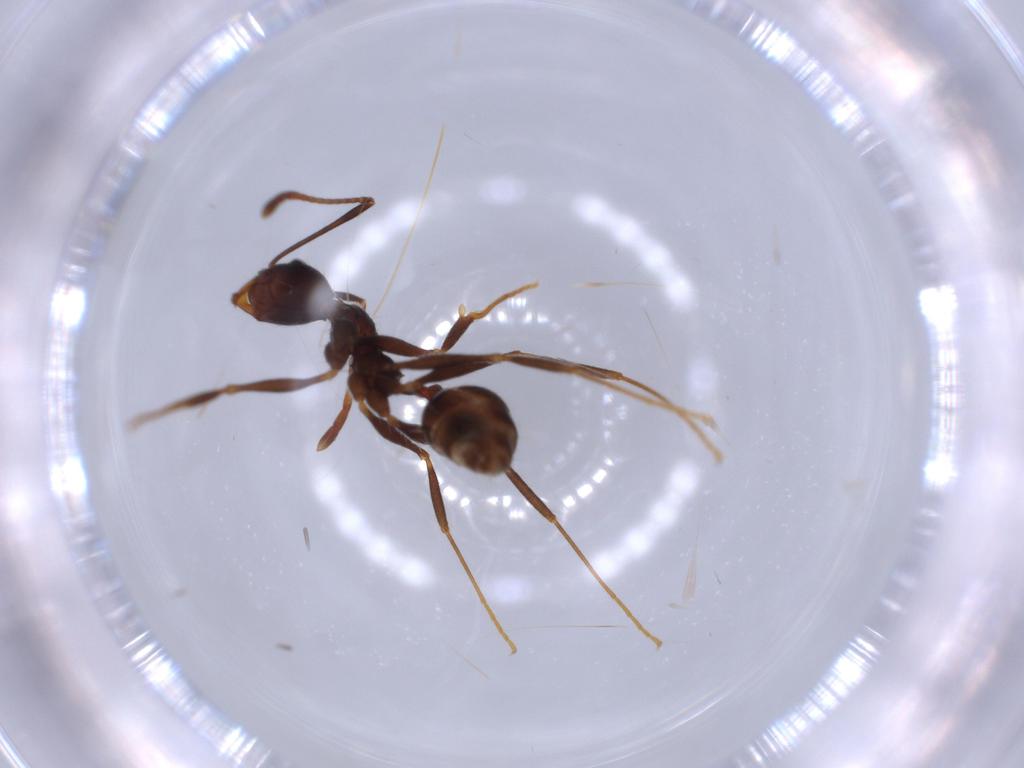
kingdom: Animalia
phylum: Arthropoda
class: Insecta
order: Hymenoptera
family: Formicidae
